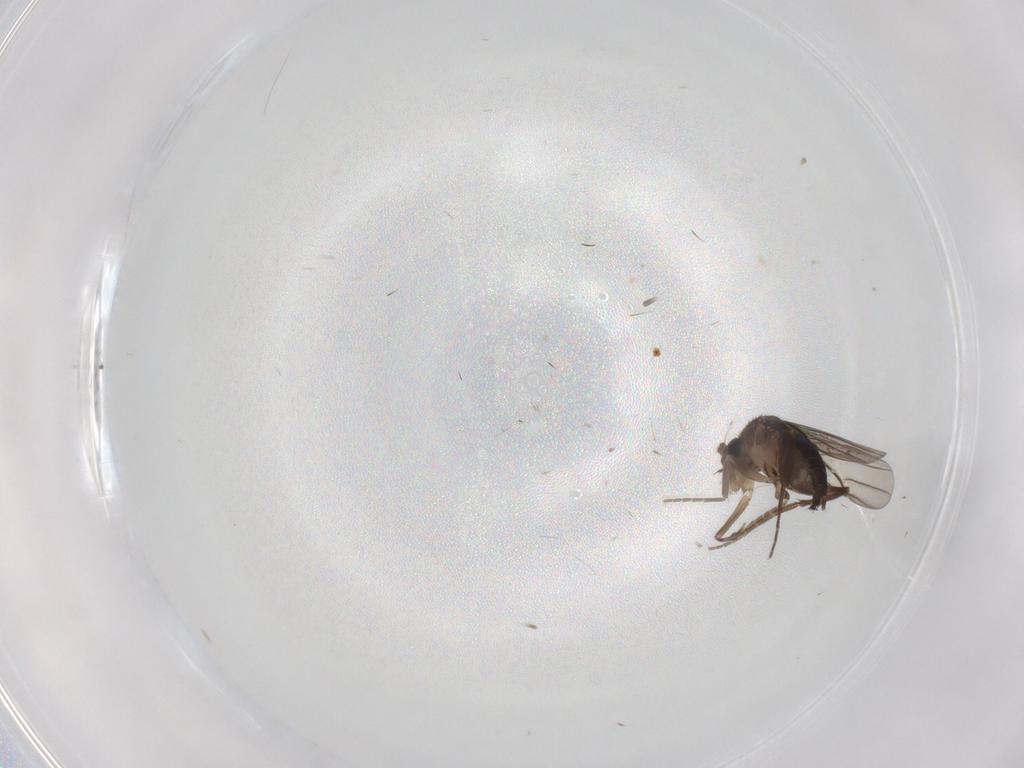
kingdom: Animalia
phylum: Arthropoda
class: Insecta
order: Diptera
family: Phoridae
